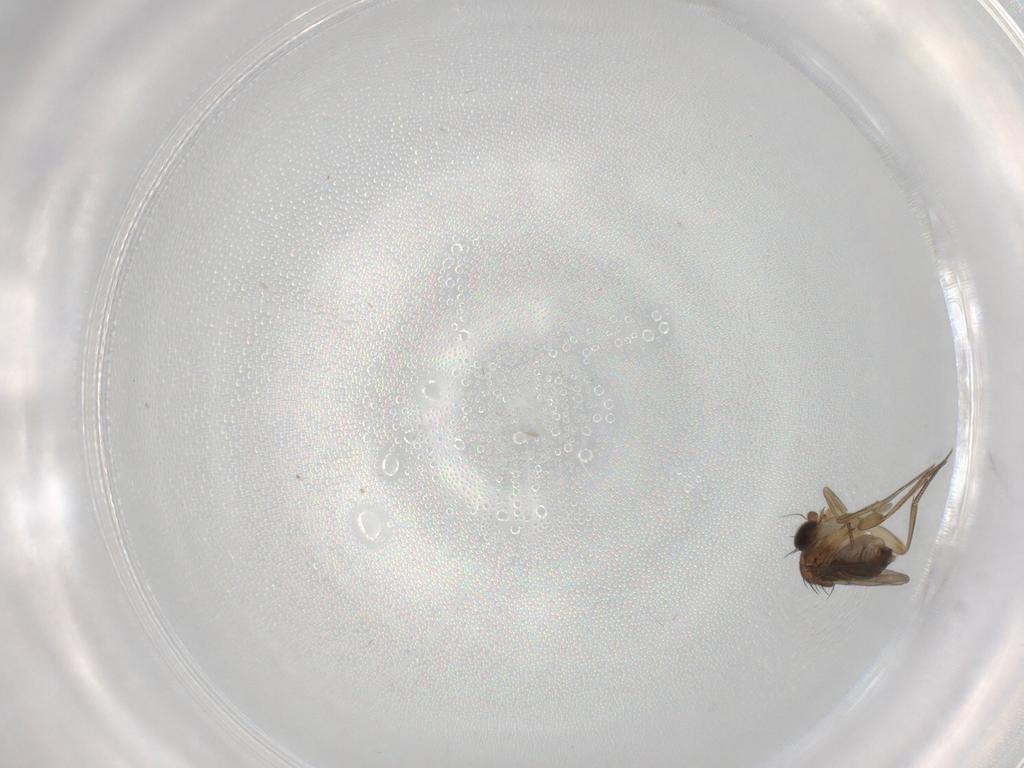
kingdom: Animalia
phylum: Arthropoda
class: Insecta
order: Diptera
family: Phoridae
